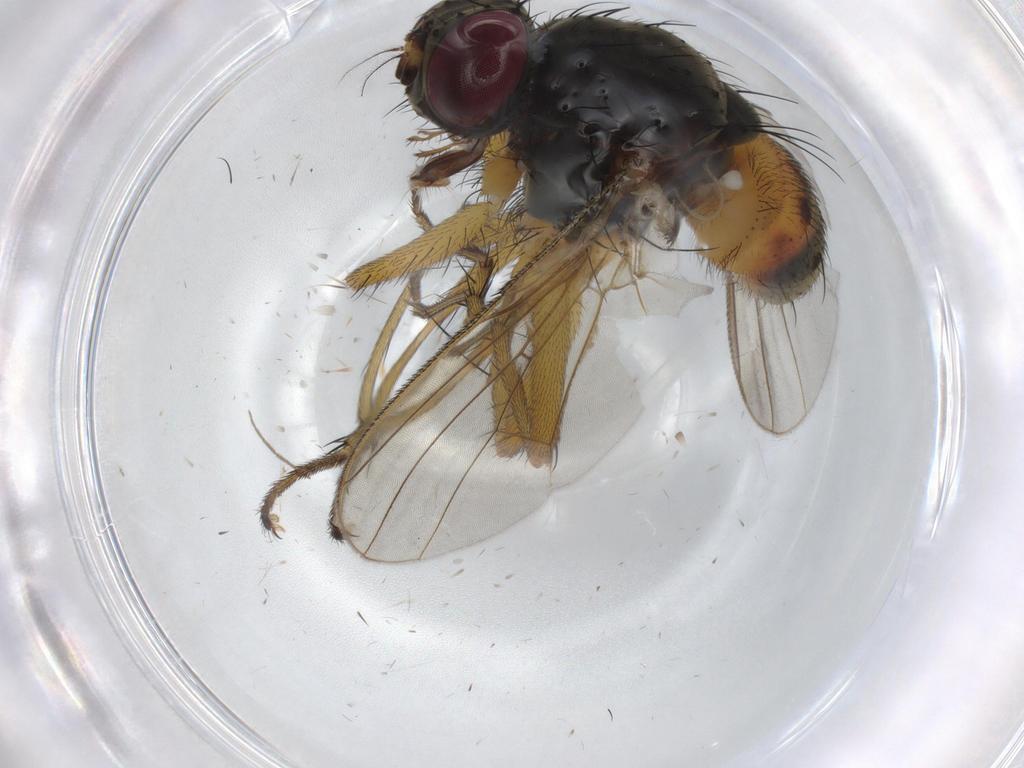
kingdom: Animalia
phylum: Arthropoda
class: Insecta
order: Diptera
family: Muscidae
